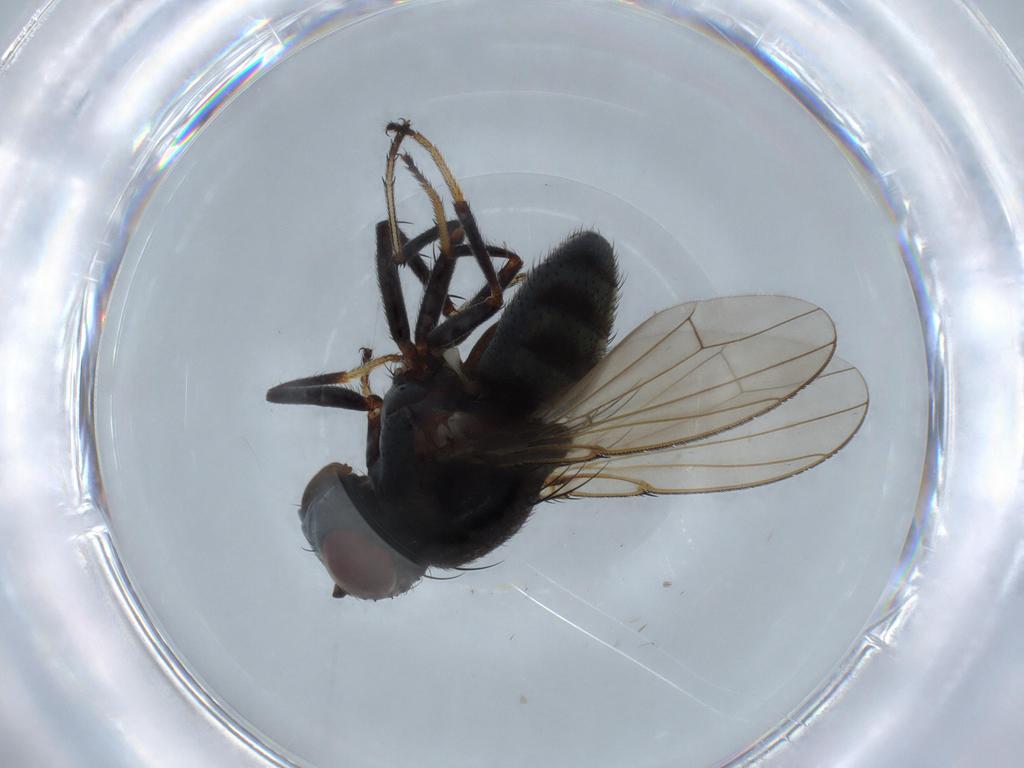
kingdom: Animalia
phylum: Arthropoda
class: Insecta
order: Diptera
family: Ephydridae
